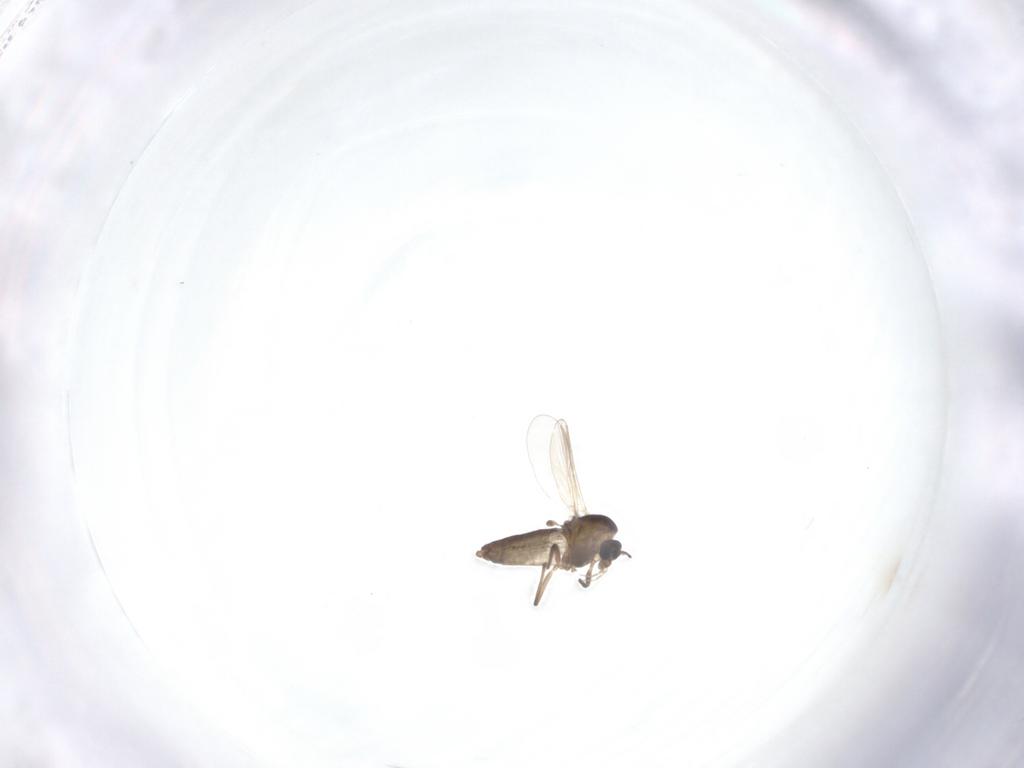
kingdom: Animalia
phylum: Arthropoda
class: Insecta
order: Diptera
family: Chironomidae
